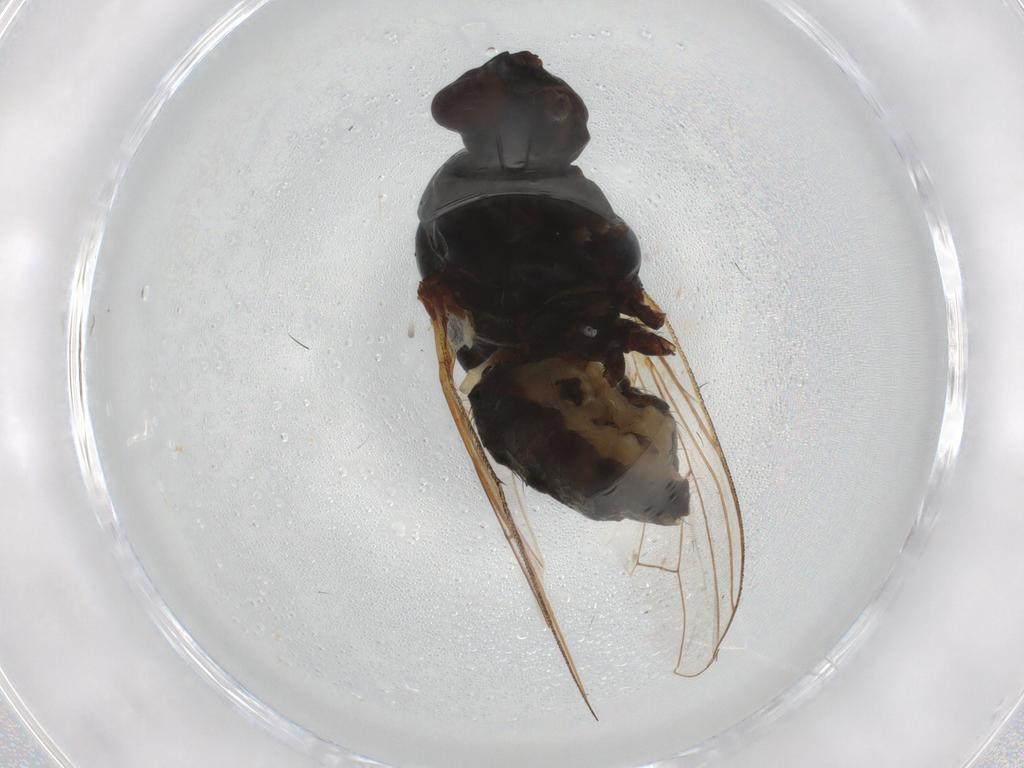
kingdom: Animalia
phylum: Arthropoda
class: Insecta
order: Diptera
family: Anthomyiidae
